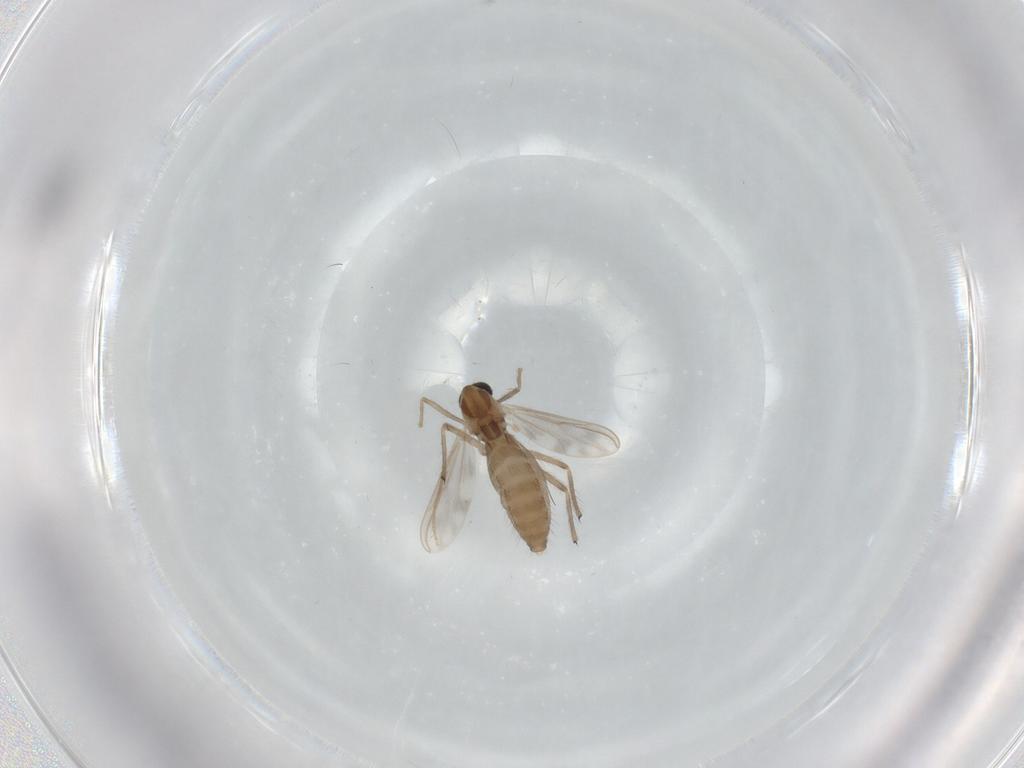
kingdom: Animalia
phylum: Arthropoda
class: Insecta
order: Diptera
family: Chironomidae
